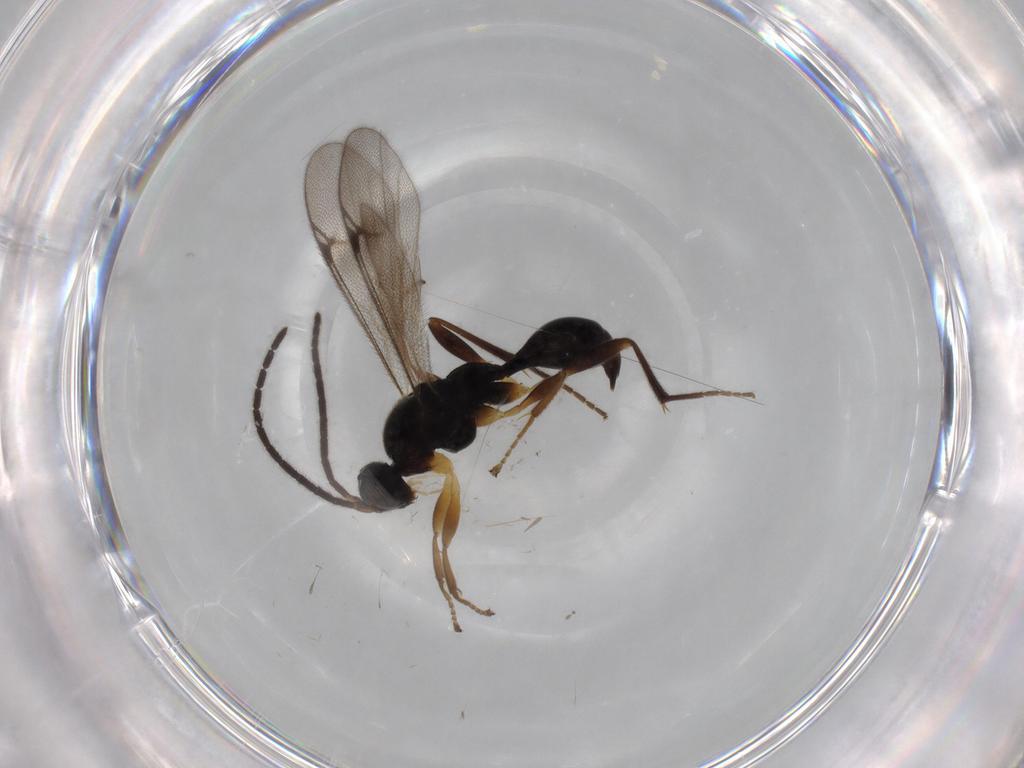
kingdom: Animalia
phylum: Arthropoda
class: Insecta
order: Hymenoptera
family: Proctotrupidae
